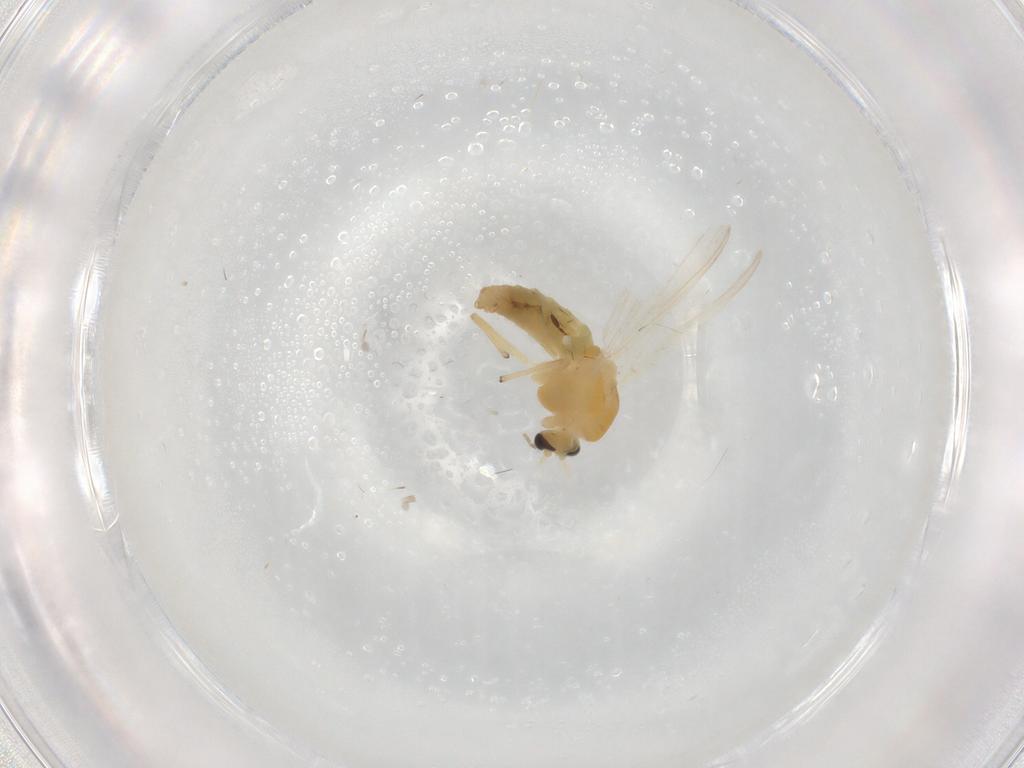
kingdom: Animalia
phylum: Arthropoda
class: Insecta
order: Diptera
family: Chironomidae
